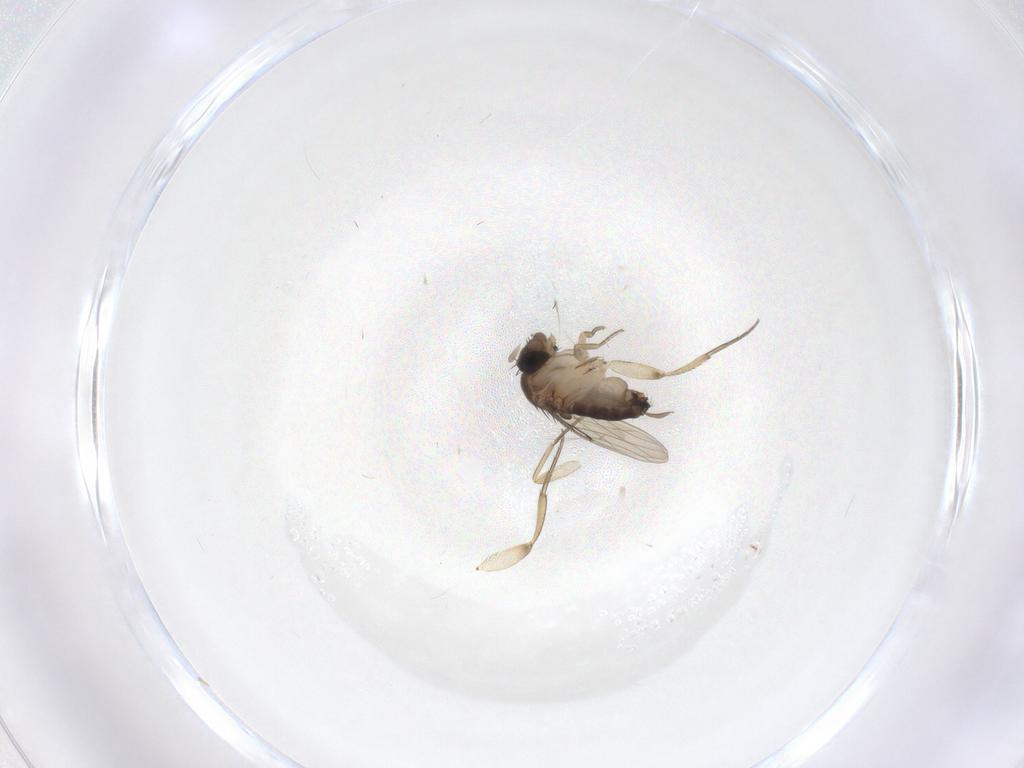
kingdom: Animalia
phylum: Arthropoda
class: Insecta
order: Diptera
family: Phoridae
